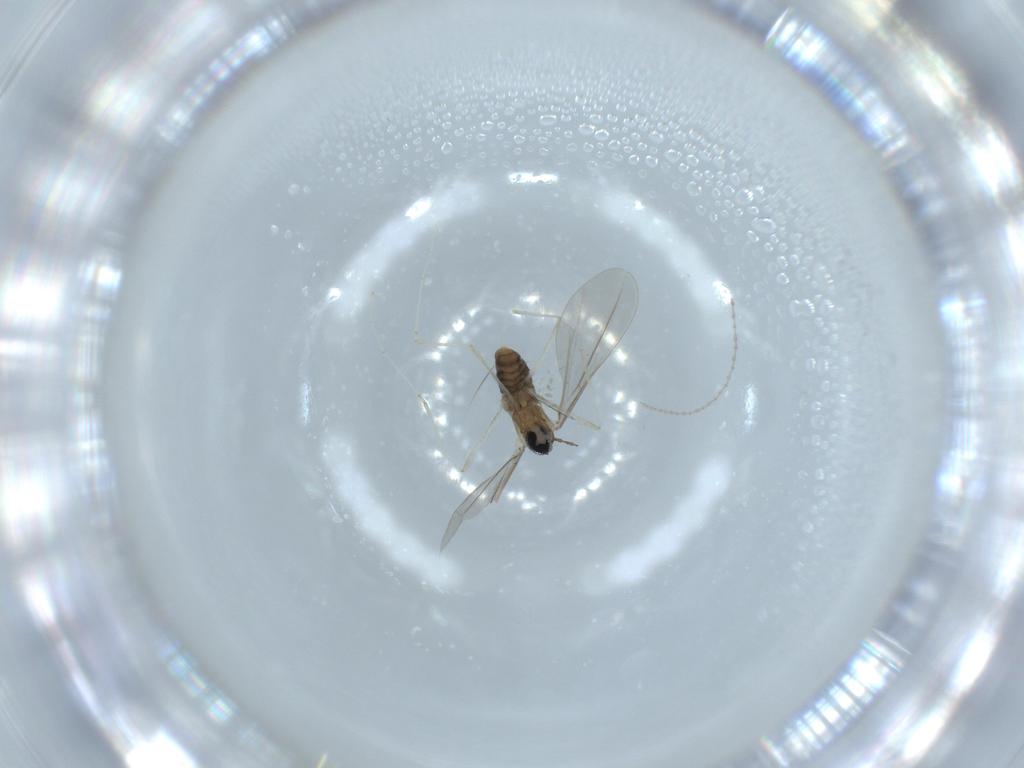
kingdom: Animalia
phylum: Arthropoda
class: Insecta
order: Diptera
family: Cecidomyiidae
